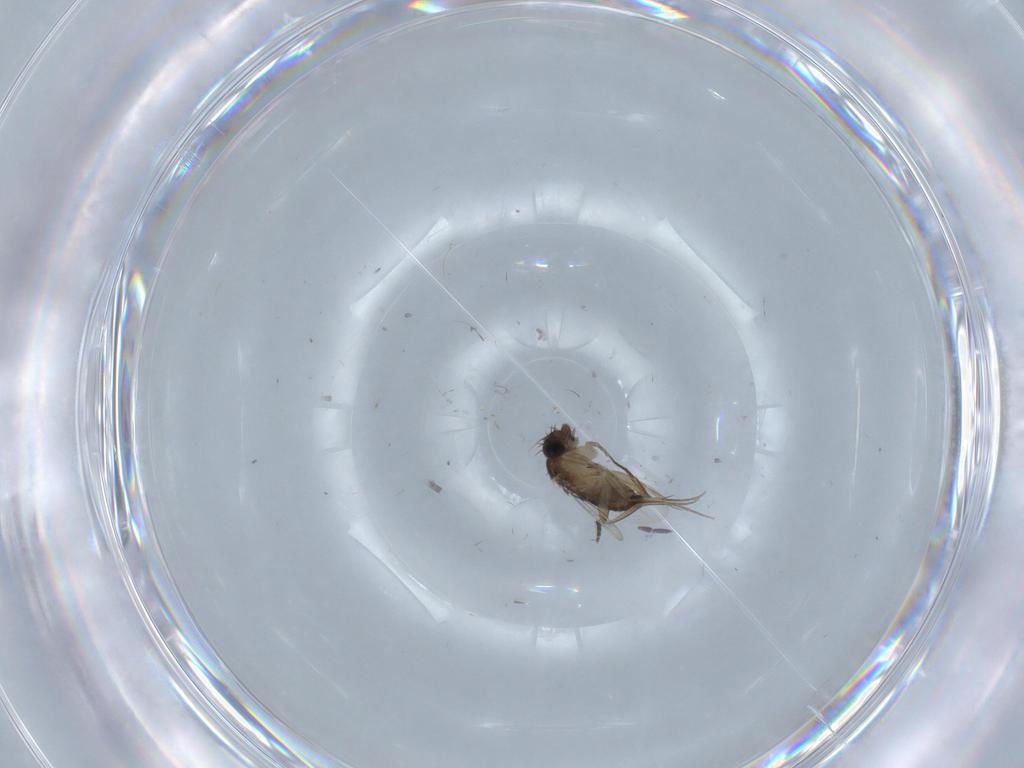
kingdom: Animalia
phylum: Arthropoda
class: Insecta
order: Diptera
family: Phoridae
